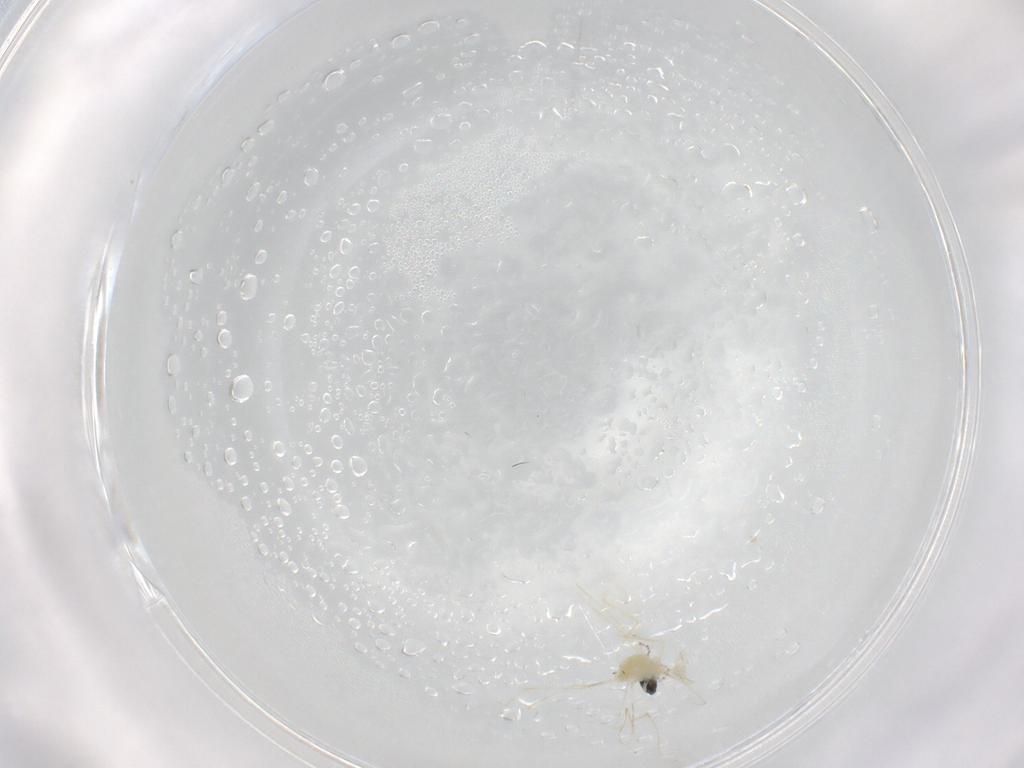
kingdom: Animalia
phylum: Arthropoda
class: Insecta
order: Diptera
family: Cecidomyiidae
